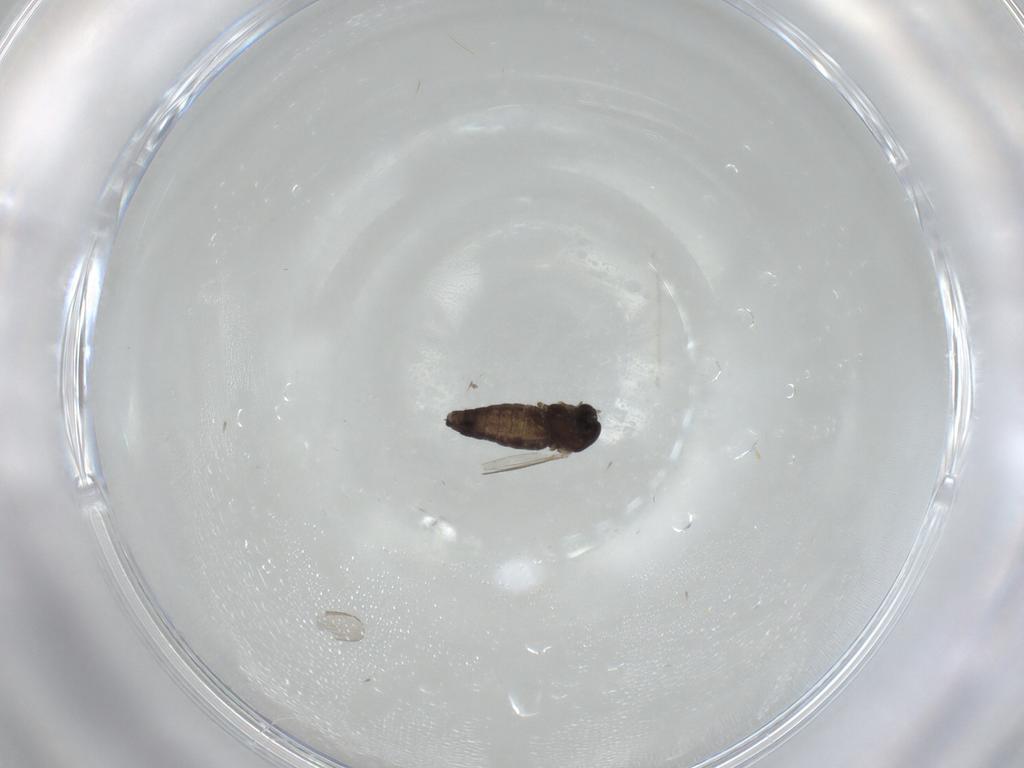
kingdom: Animalia
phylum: Arthropoda
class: Insecta
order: Diptera
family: Chironomidae
